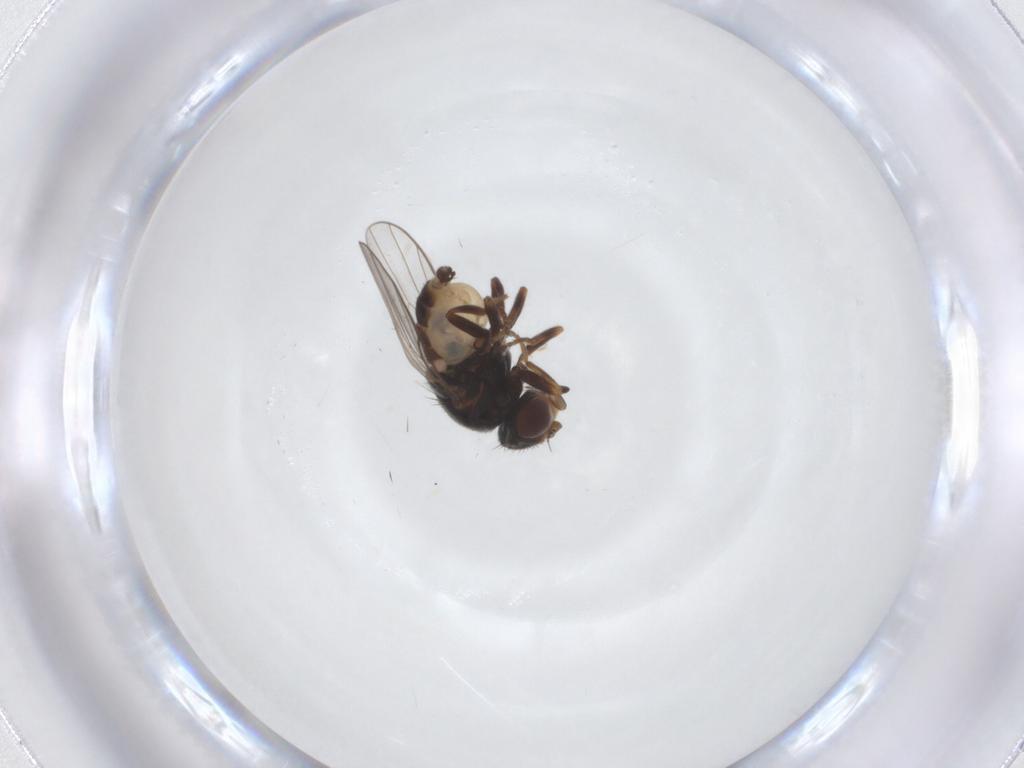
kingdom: Animalia
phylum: Arthropoda
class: Insecta
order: Diptera
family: Chloropidae
